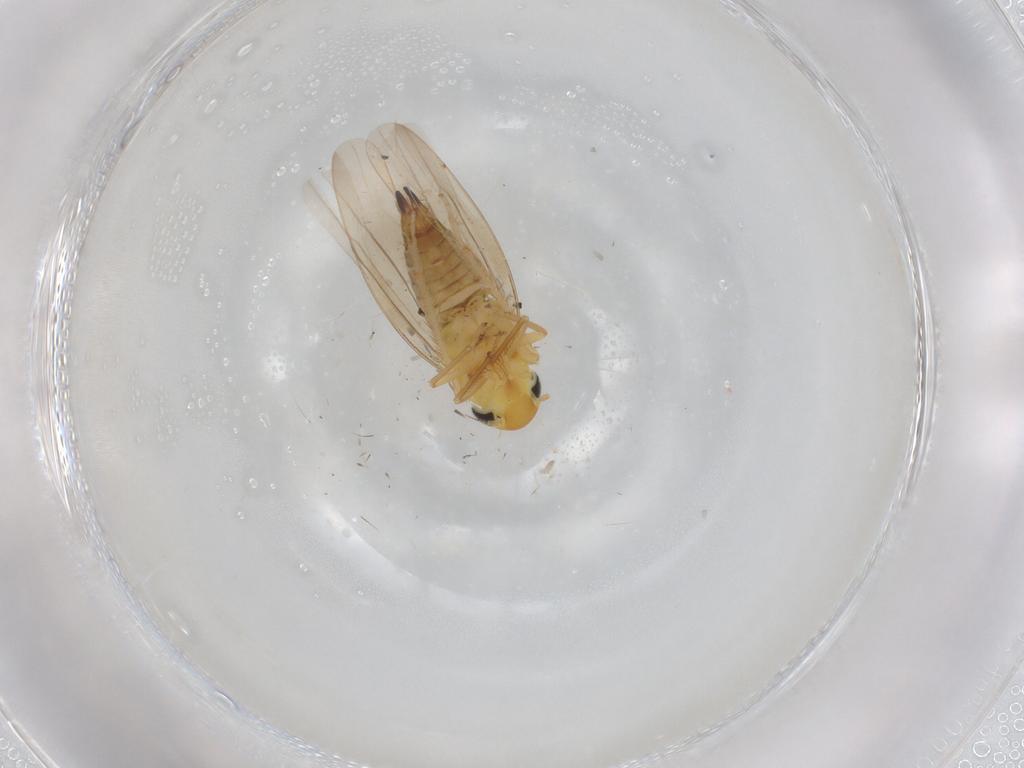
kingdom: Animalia
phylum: Arthropoda
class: Insecta
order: Hemiptera
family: Cicadellidae
